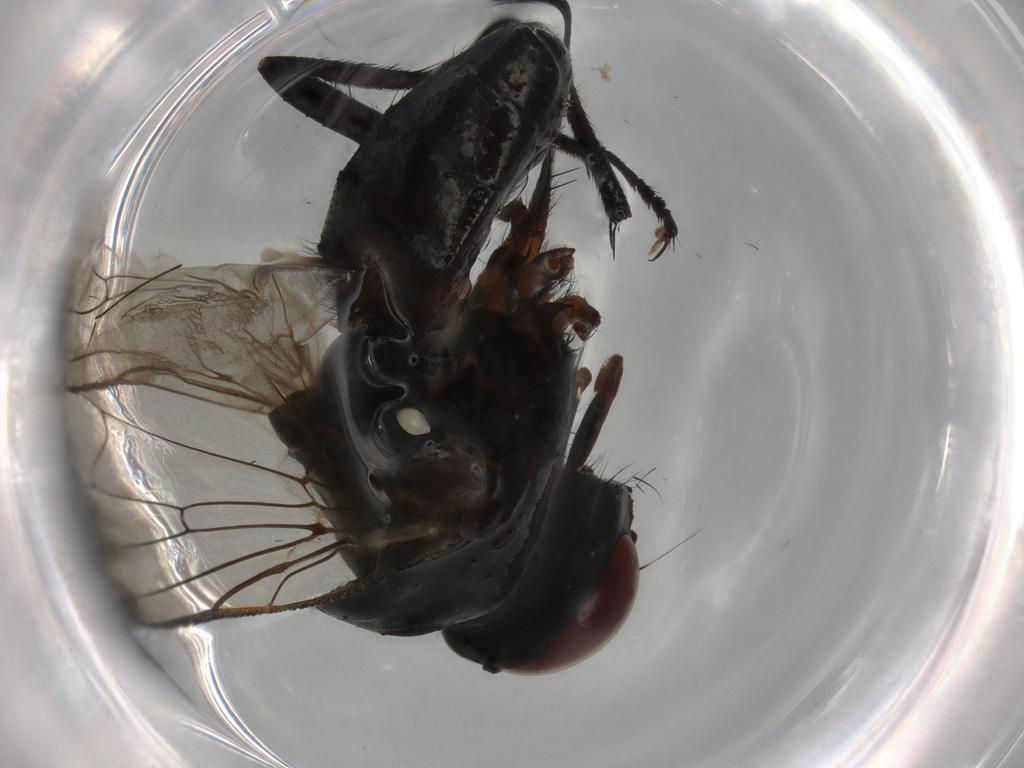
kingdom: Animalia
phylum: Arthropoda
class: Insecta
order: Diptera
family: Anthomyiidae
